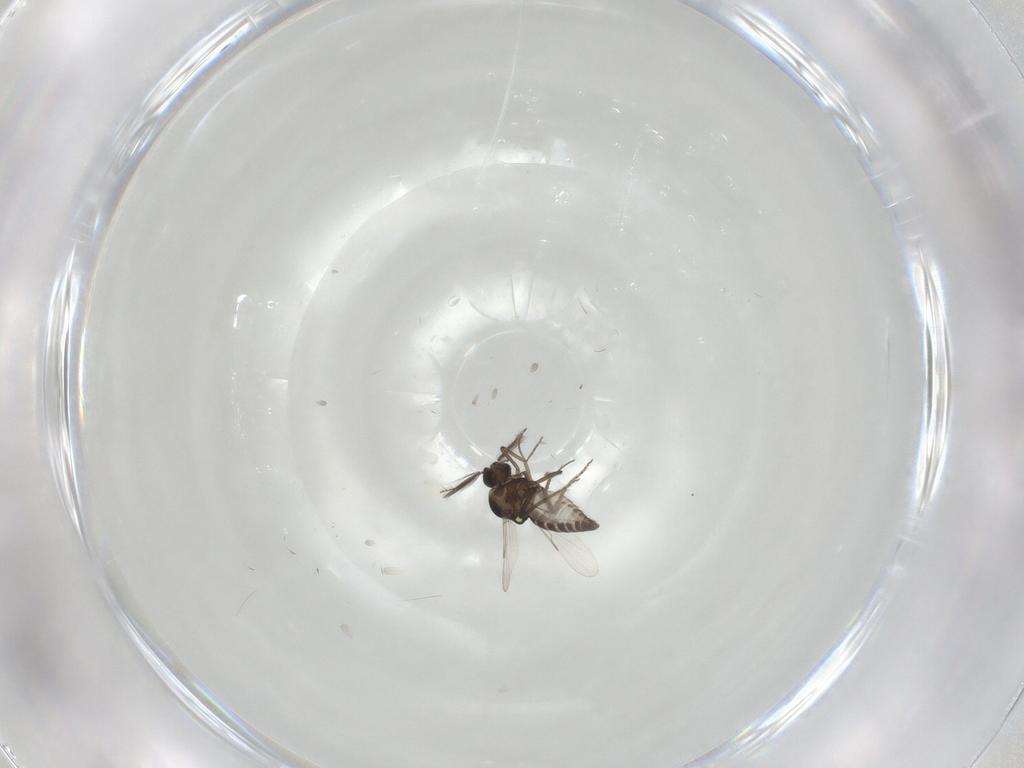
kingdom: Animalia
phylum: Arthropoda
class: Insecta
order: Diptera
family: Ceratopogonidae
